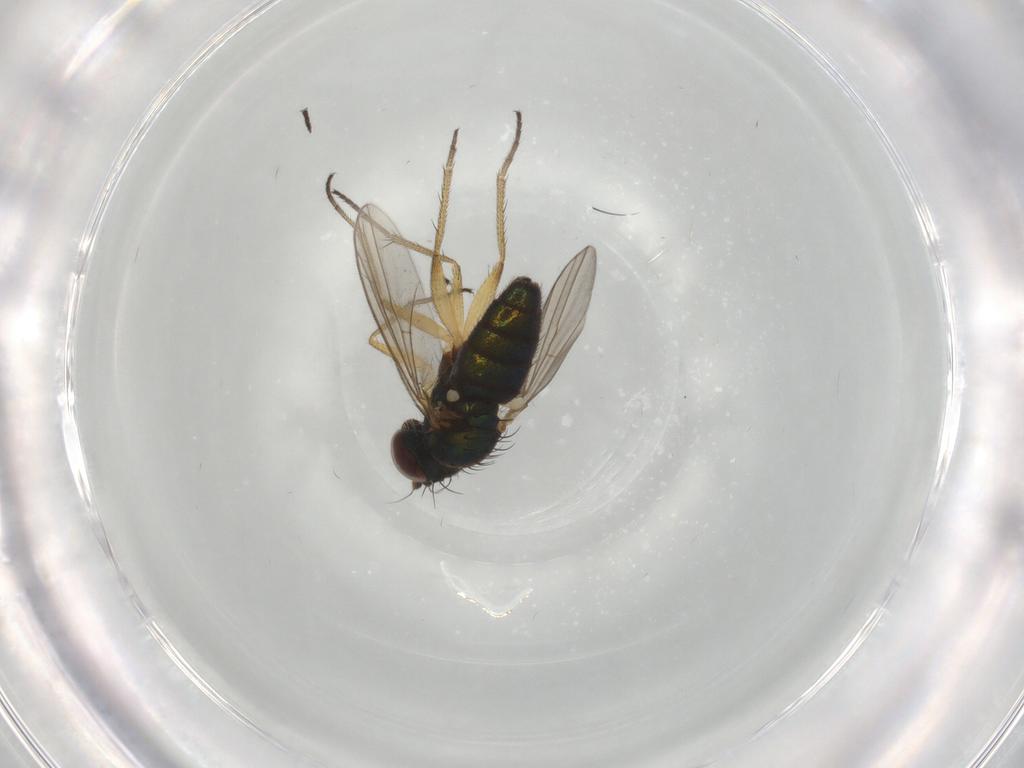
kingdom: Animalia
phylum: Arthropoda
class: Insecta
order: Diptera
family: Dolichopodidae
